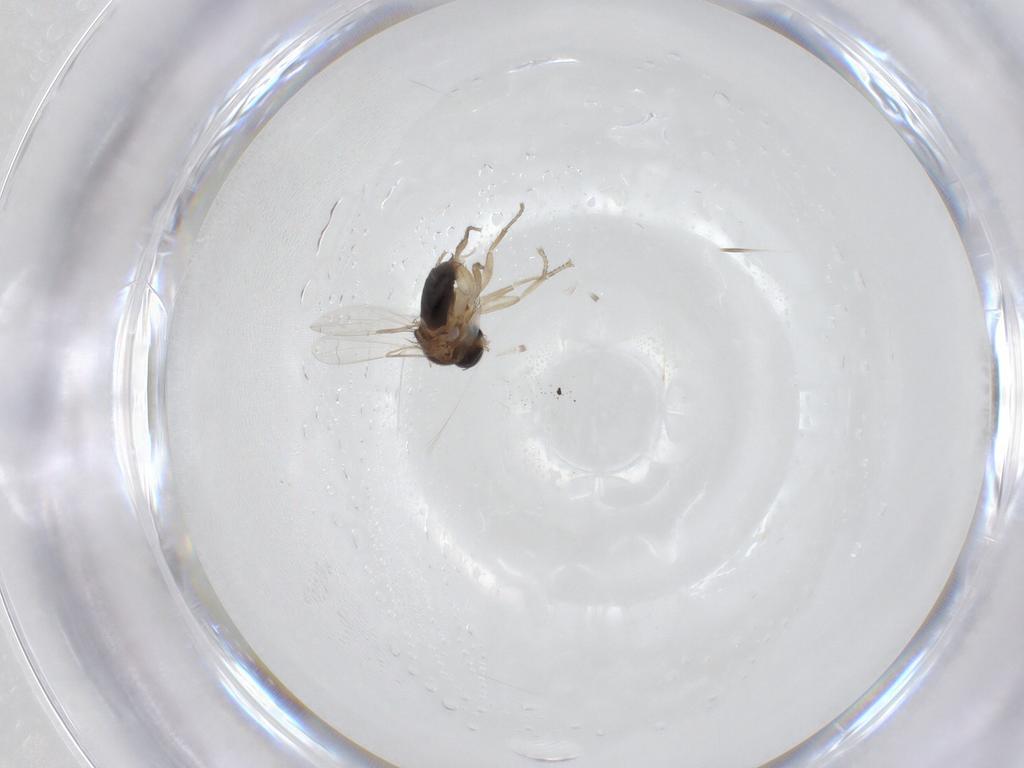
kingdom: Animalia
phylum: Arthropoda
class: Insecta
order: Diptera
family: Phoridae
